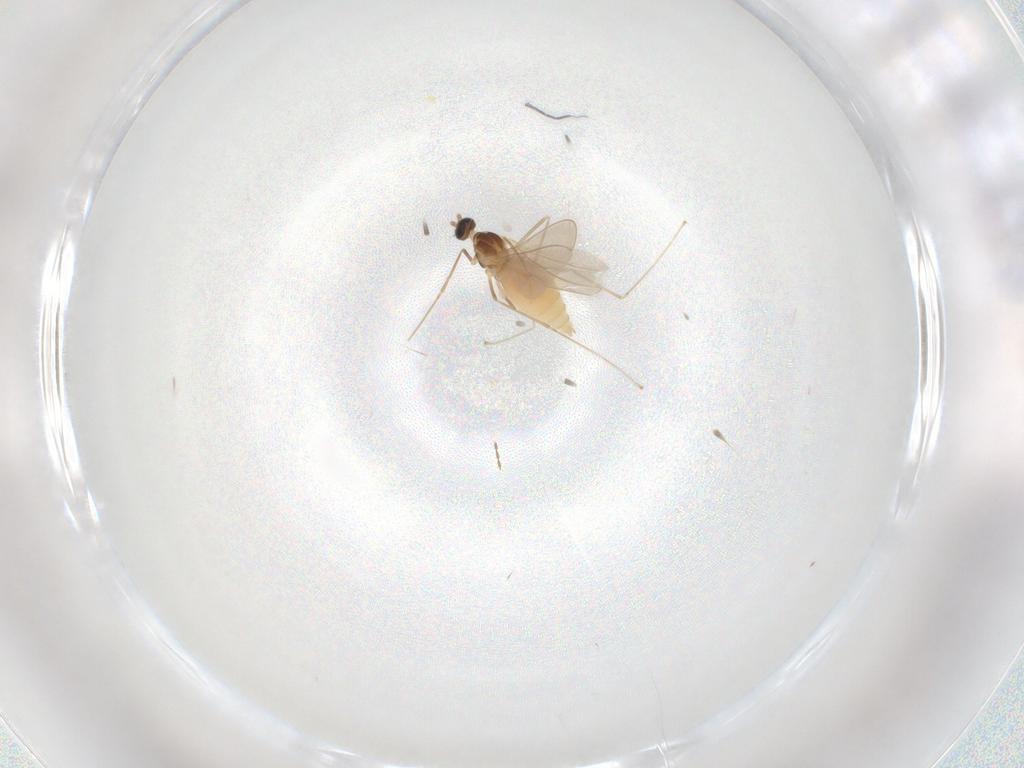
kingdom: Animalia
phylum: Arthropoda
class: Insecta
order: Diptera
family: Cecidomyiidae
